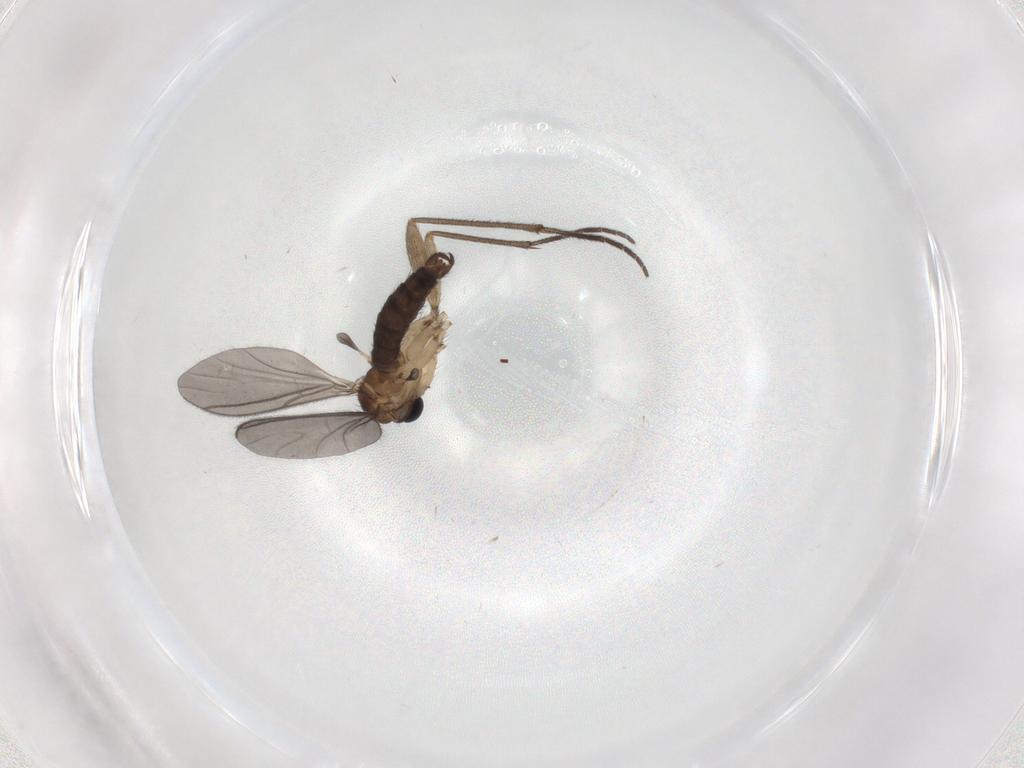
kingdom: Animalia
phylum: Arthropoda
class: Insecta
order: Diptera
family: Sciaridae
